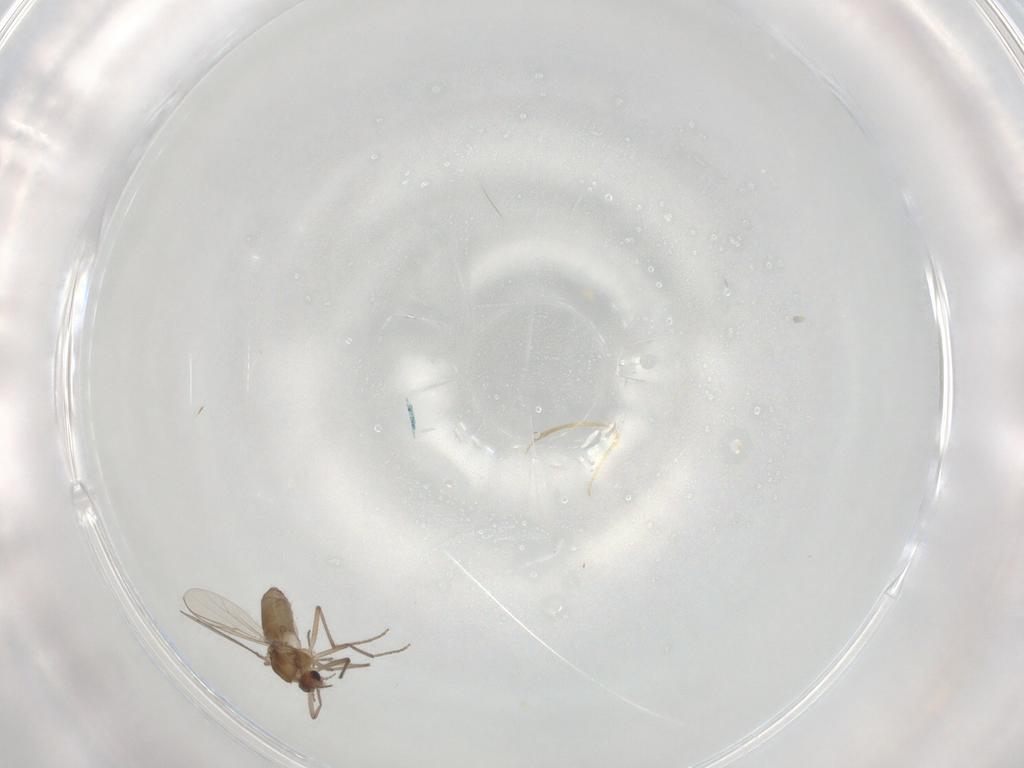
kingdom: Animalia
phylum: Arthropoda
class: Insecta
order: Diptera
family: Chironomidae
